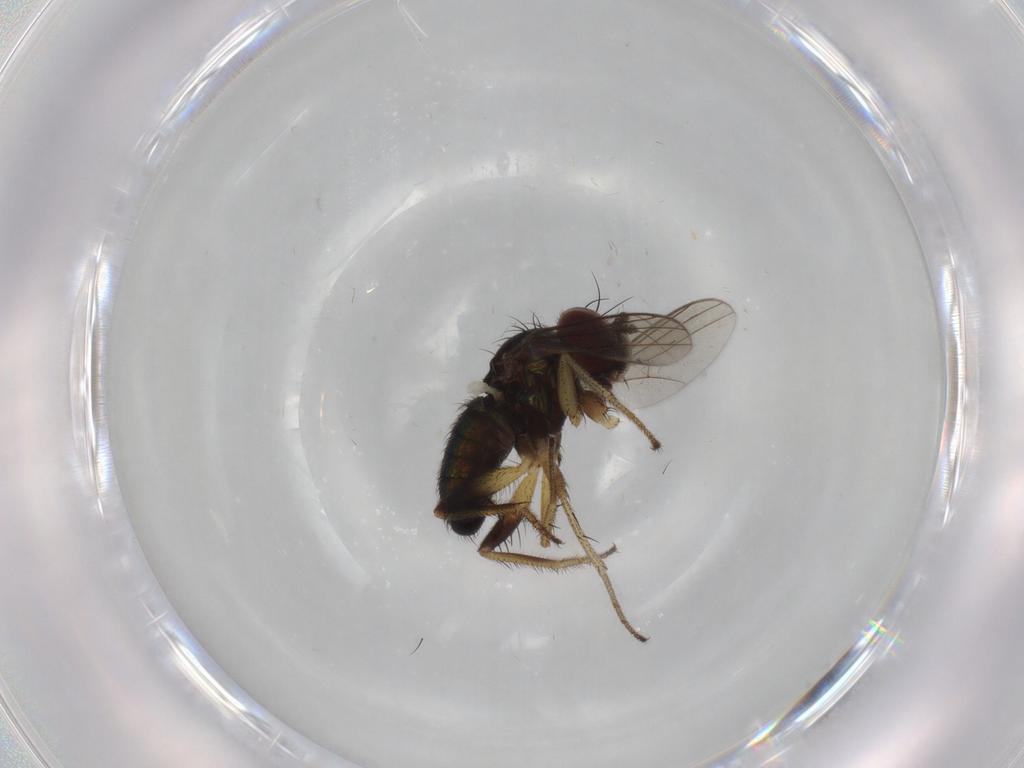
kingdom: Animalia
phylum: Arthropoda
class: Insecta
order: Diptera
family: Dolichopodidae
